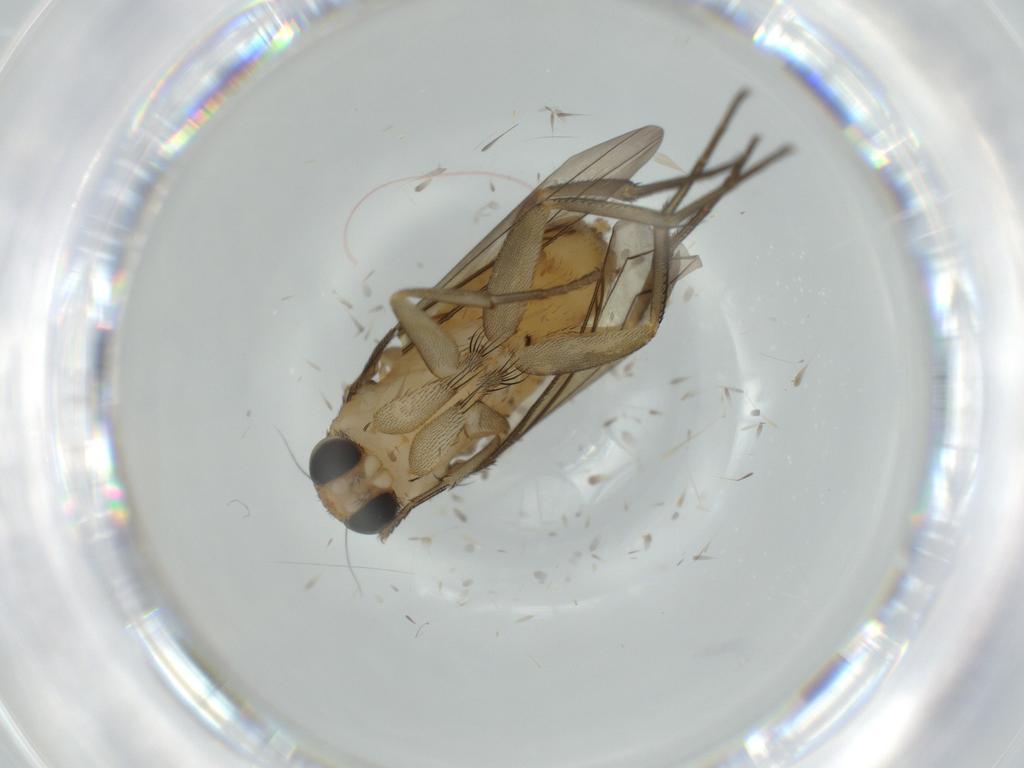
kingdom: Animalia
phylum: Arthropoda
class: Insecta
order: Diptera
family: Phoridae
